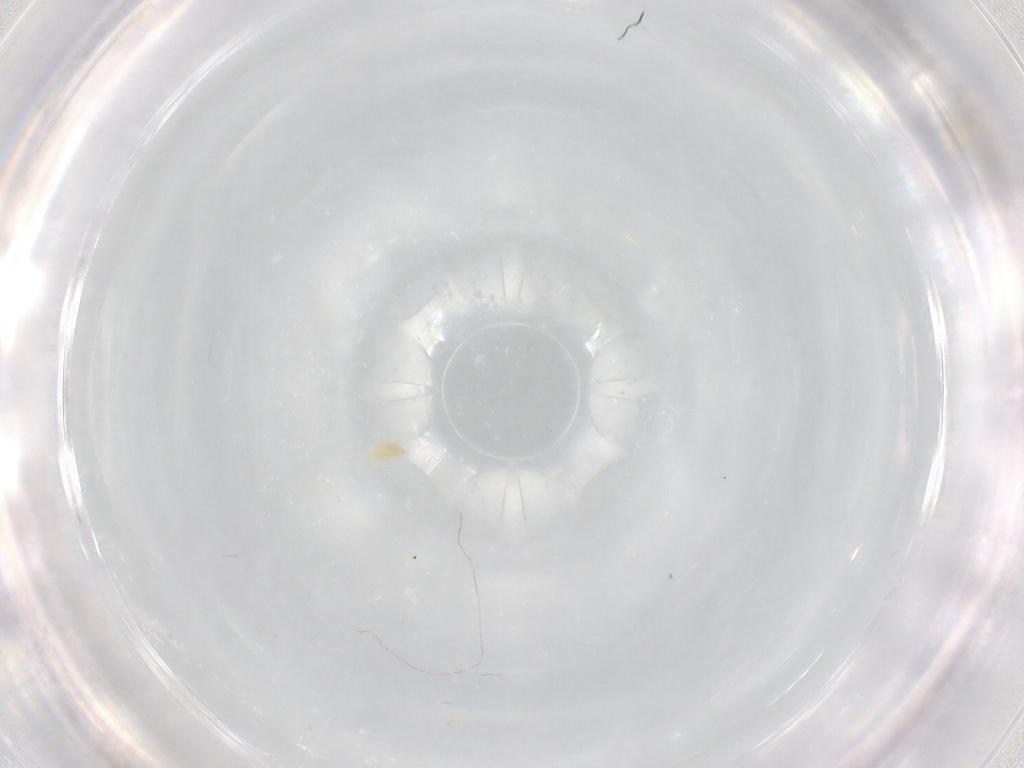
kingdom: Animalia
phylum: Arthropoda
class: Arachnida
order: Trombidiformes
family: Tetranychidae
